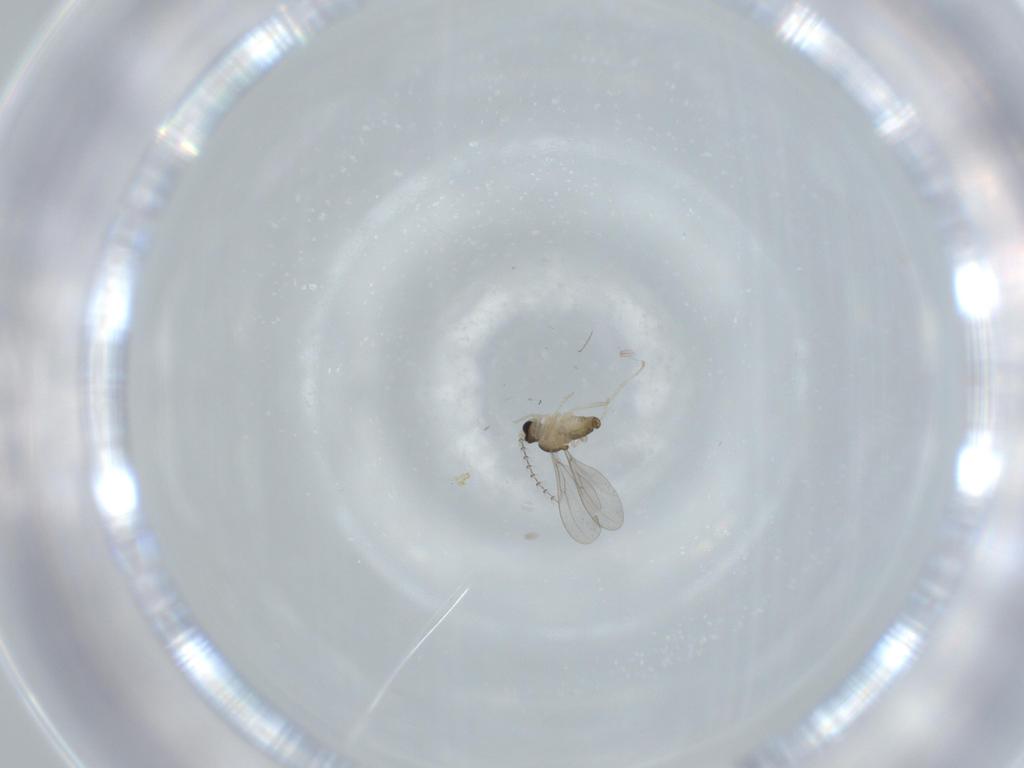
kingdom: Animalia
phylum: Arthropoda
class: Insecta
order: Diptera
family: Cecidomyiidae
